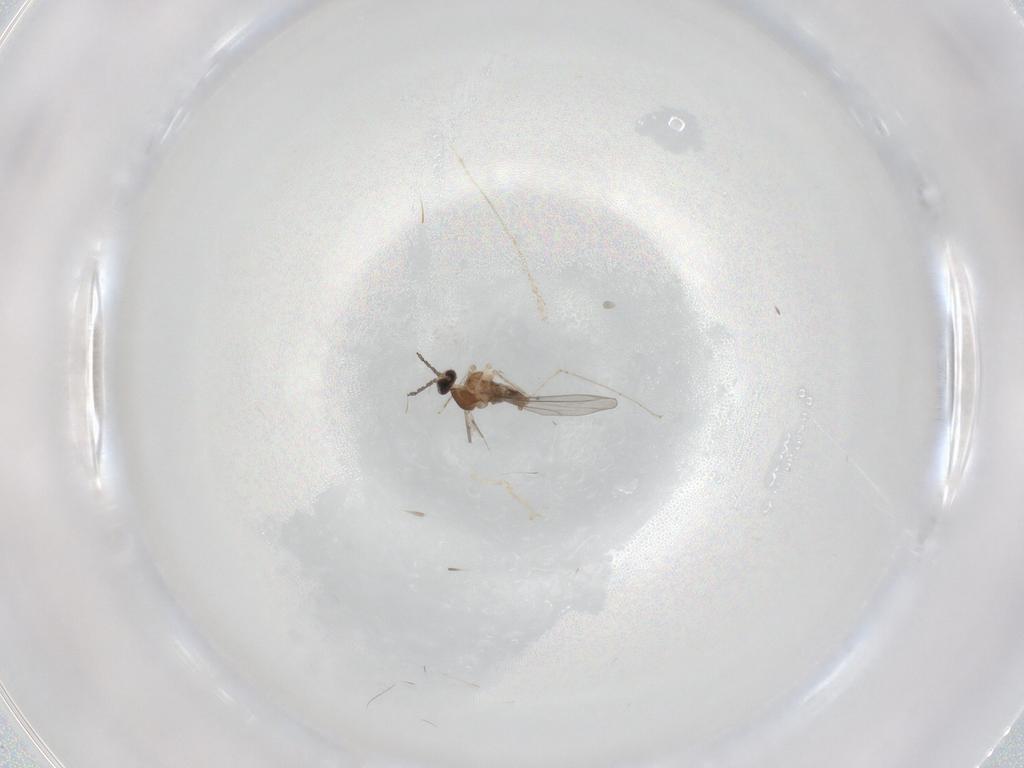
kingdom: Animalia
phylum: Arthropoda
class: Insecta
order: Diptera
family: Cecidomyiidae
